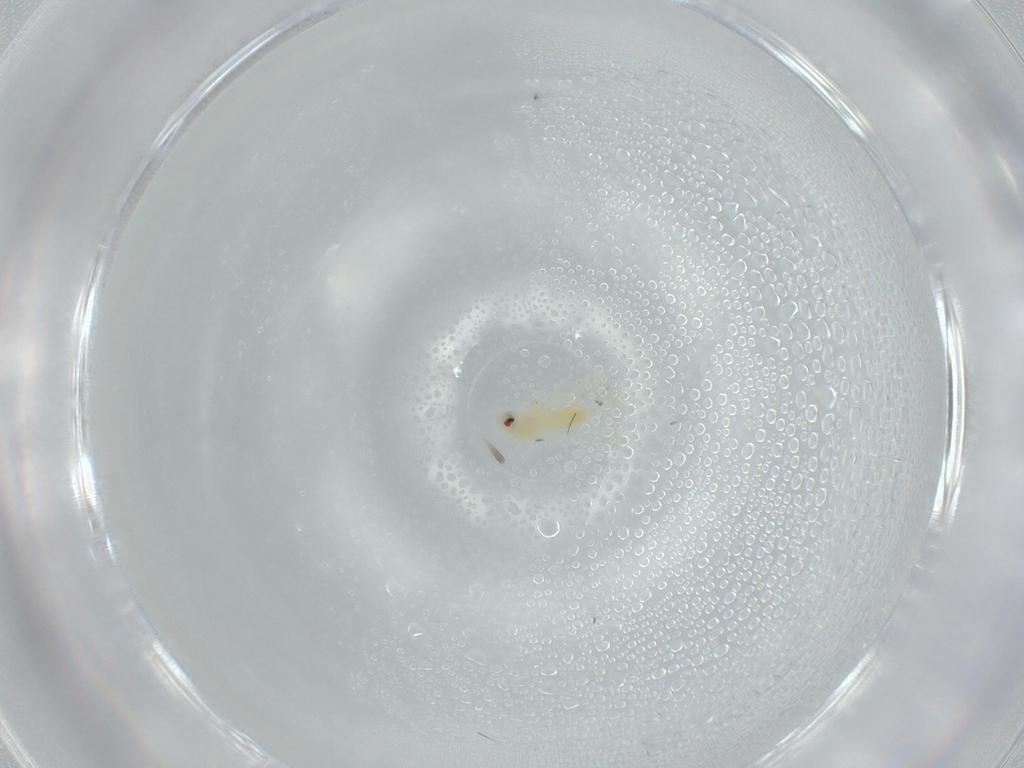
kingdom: Animalia
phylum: Arthropoda
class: Insecta
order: Hemiptera
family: Aleyrodidae
